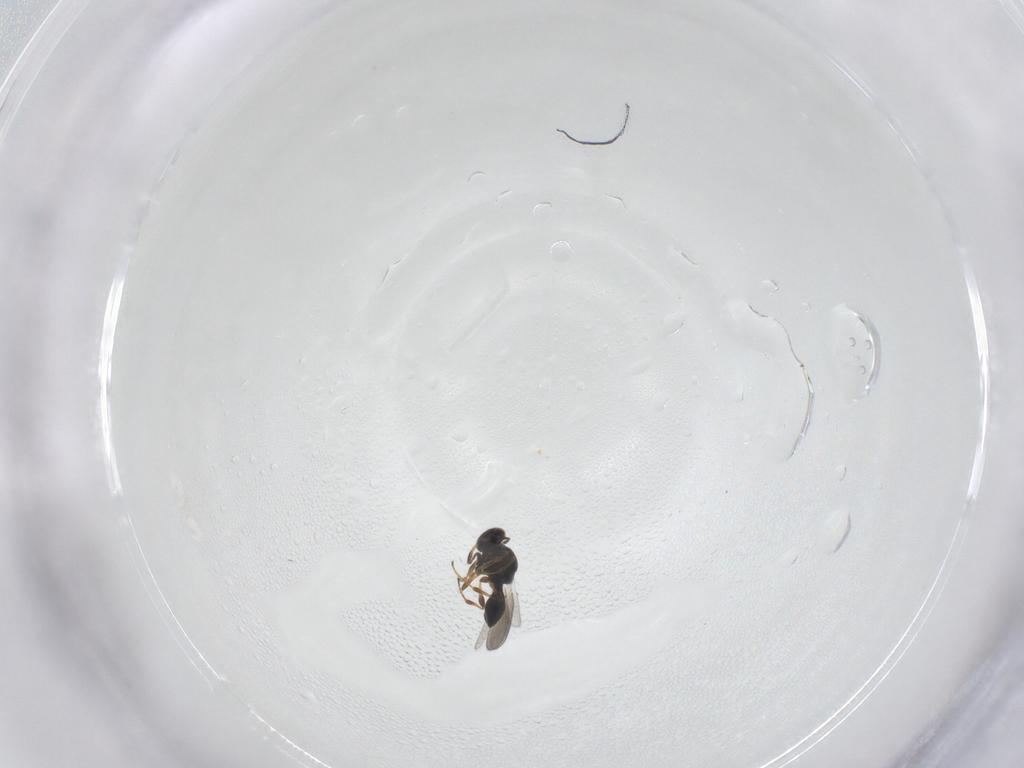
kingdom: Animalia
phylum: Arthropoda
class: Insecta
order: Hymenoptera
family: Platygastridae
